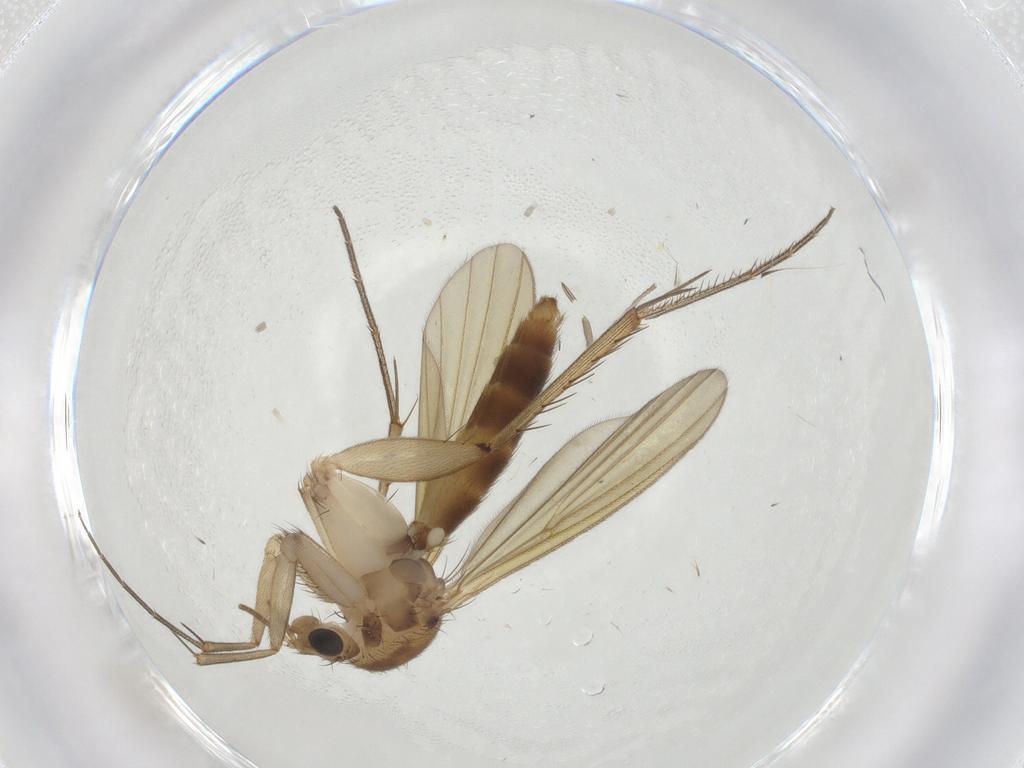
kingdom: Animalia
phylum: Arthropoda
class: Insecta
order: Diptera
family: Mycetophilidae
